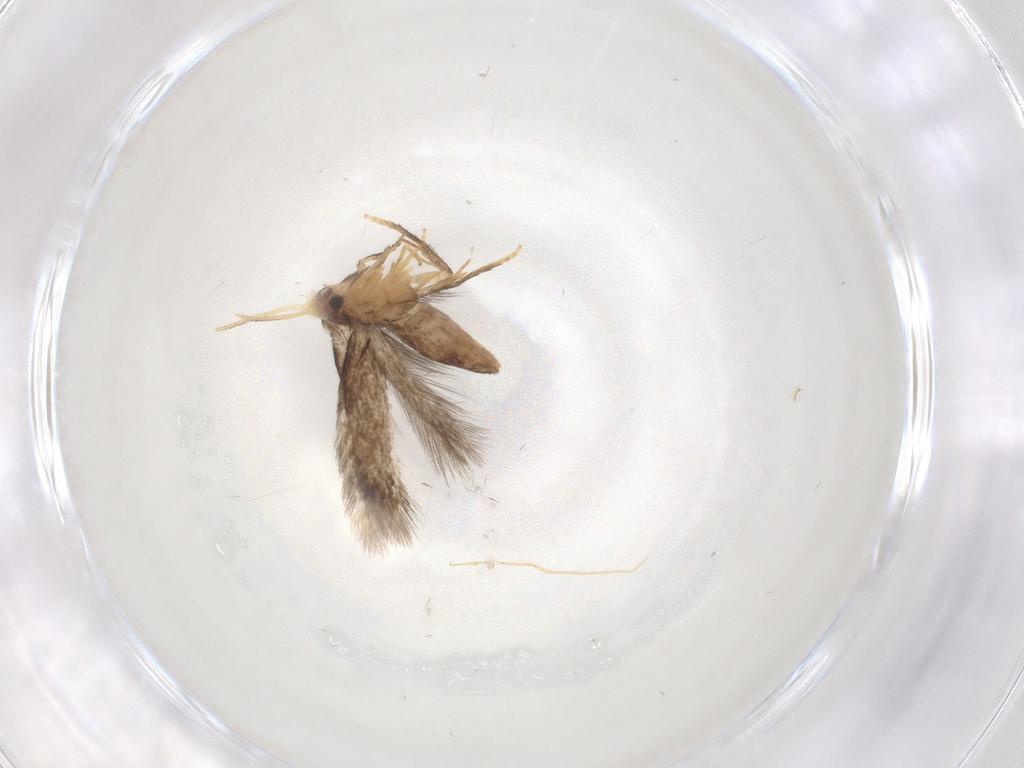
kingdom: Animalia
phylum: Arthropoda
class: Insecta
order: Lepidoptera
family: Nepticulidae
